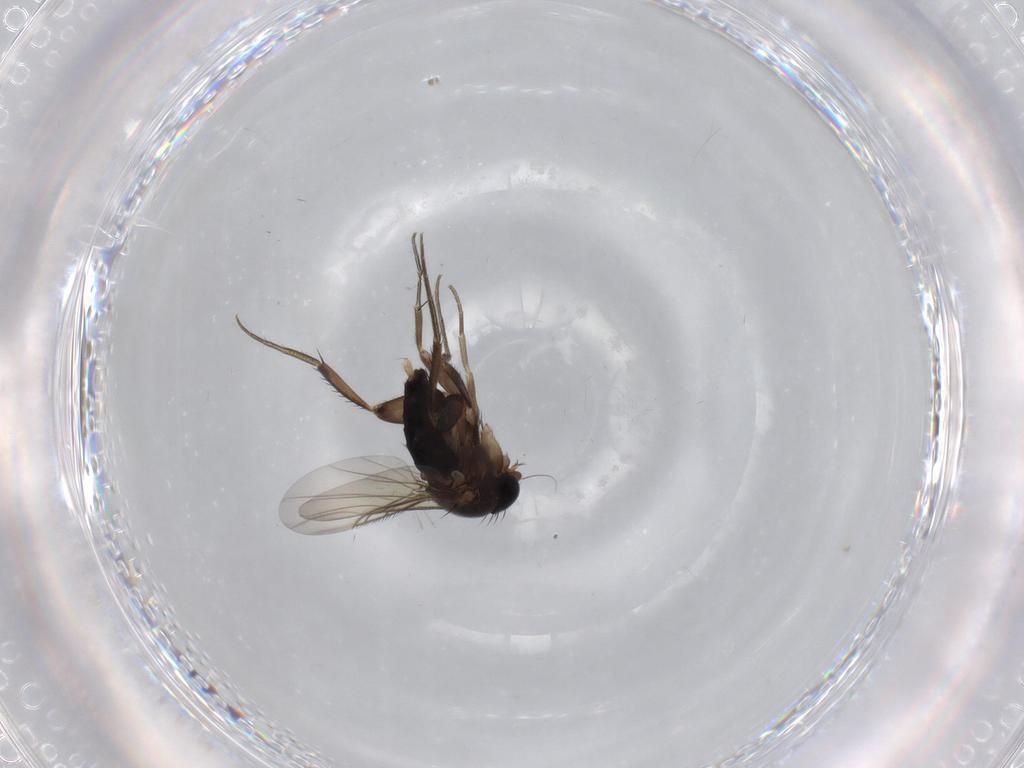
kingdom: Animalia
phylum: Arthropoda
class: Insecta
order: Diptera
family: Phoridae
